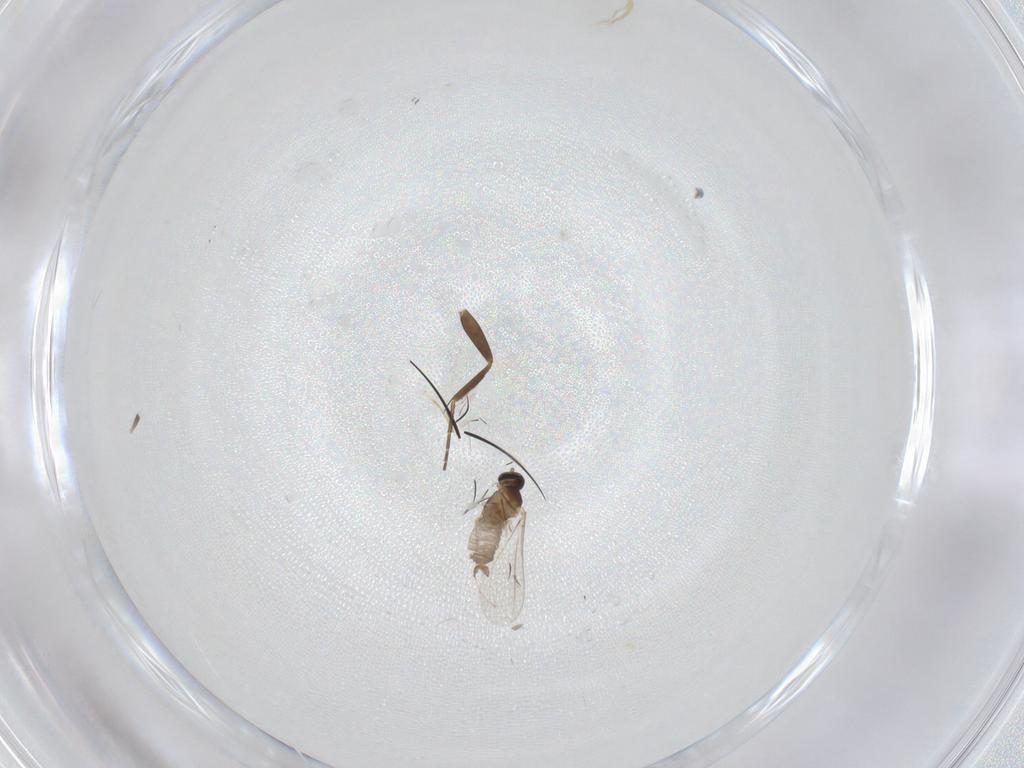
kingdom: Animalia
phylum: Arthropoda
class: Insecta
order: Diptera
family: Cecidomyiidae
